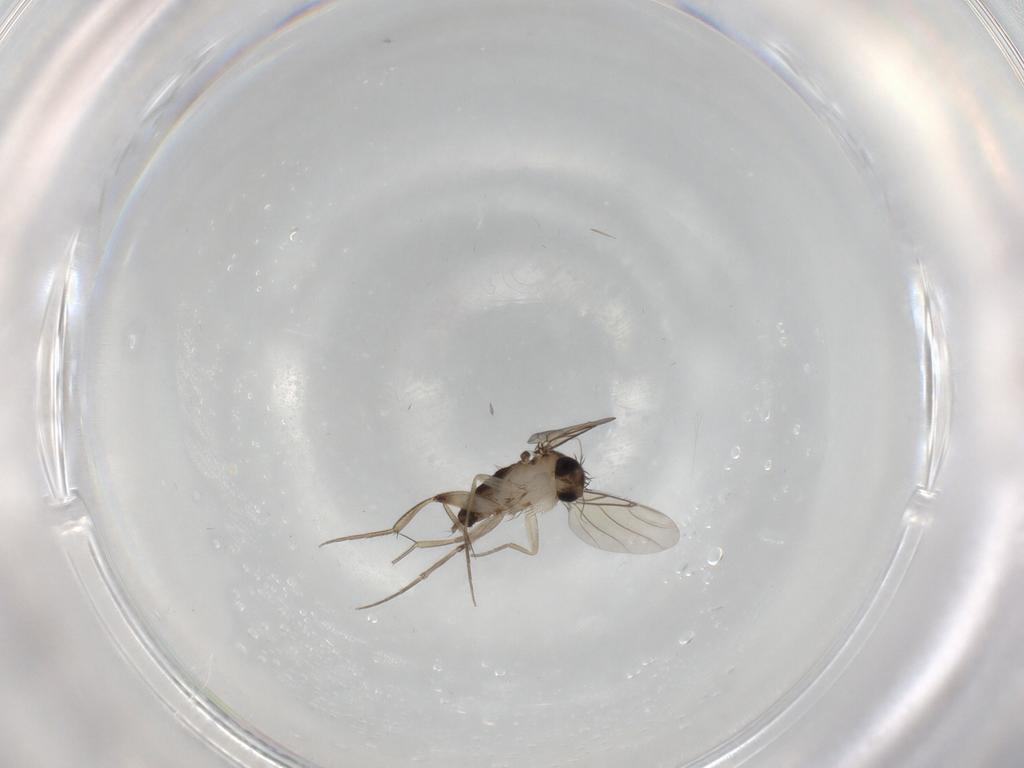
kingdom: Animalia
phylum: Arthropoda
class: Insecta
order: Diptera
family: Phoridae
